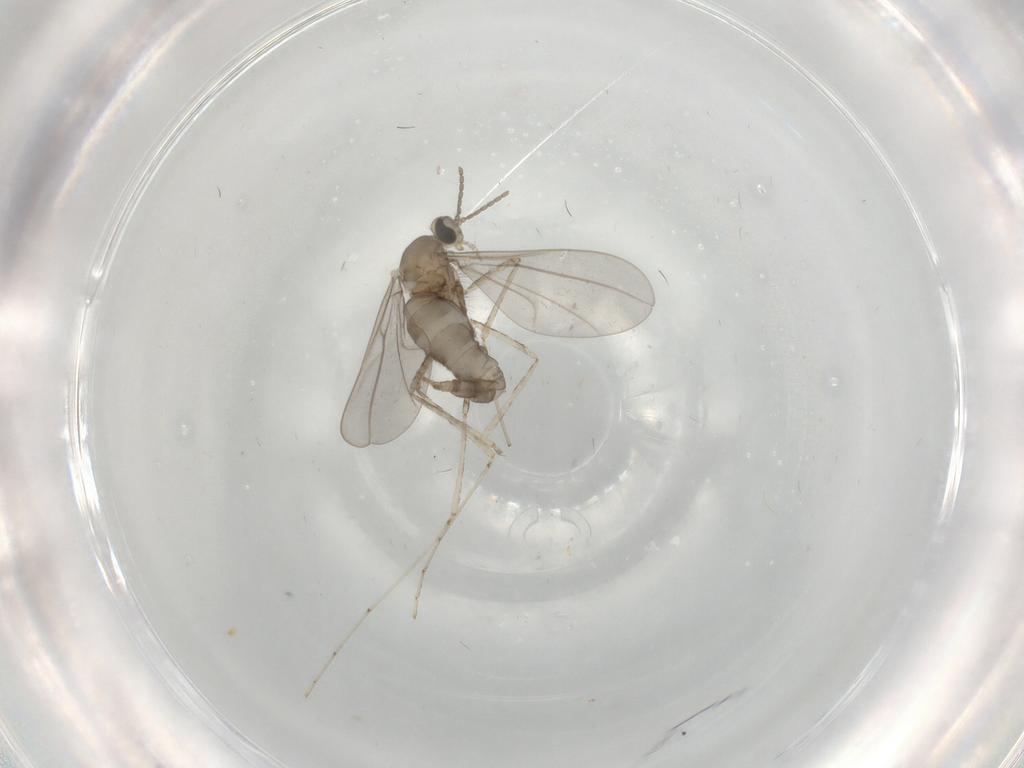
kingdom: Animalia
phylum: Arthropoda
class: Insecta
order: Diptera
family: Cecidomyiidae
